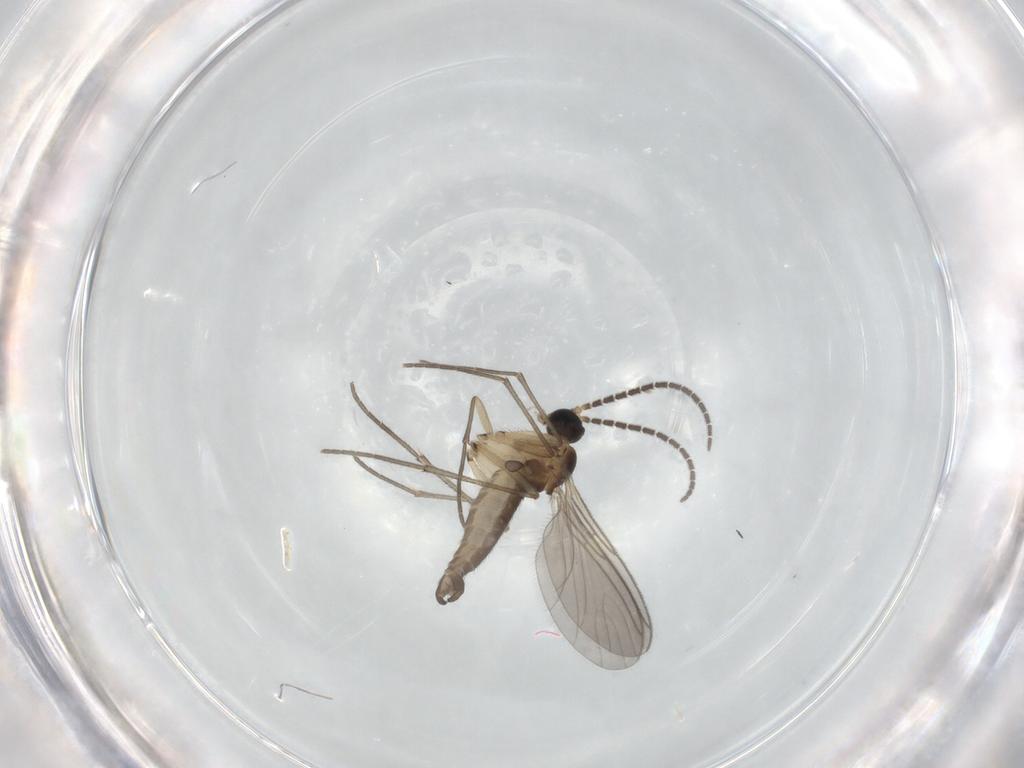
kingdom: Animalia
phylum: Arthropoda
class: Insecta
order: Diptera
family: Sciaridae
